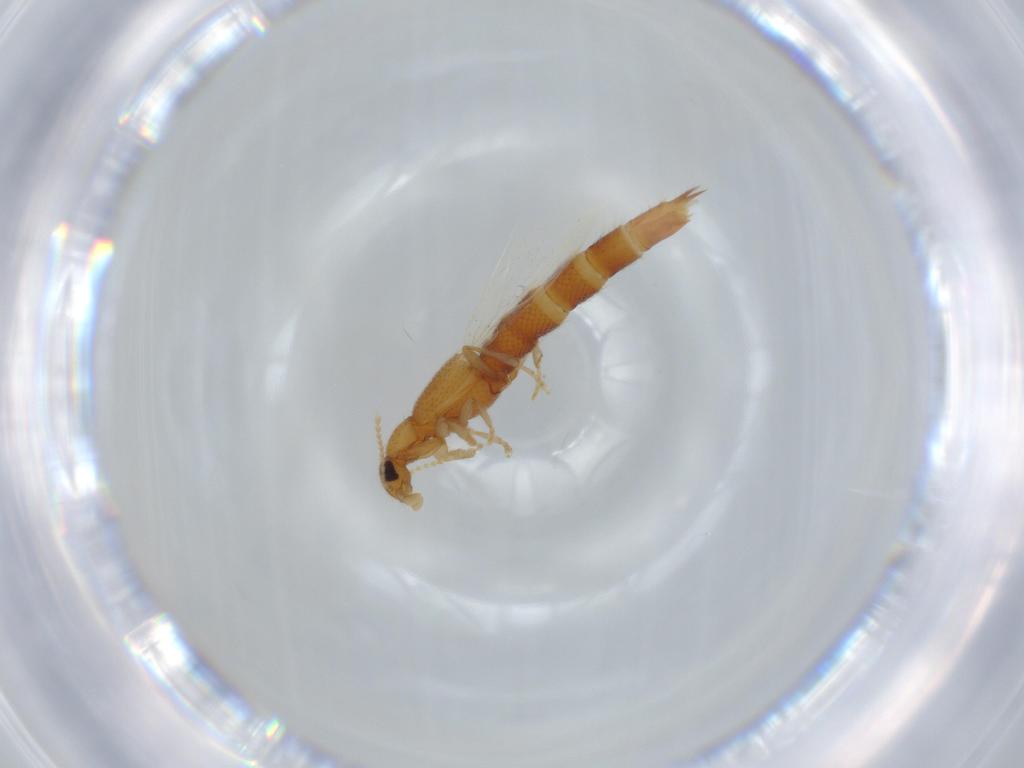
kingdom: Animalia
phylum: Arthropoda
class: Insecta
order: Coleoptera
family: Staphylinidae
